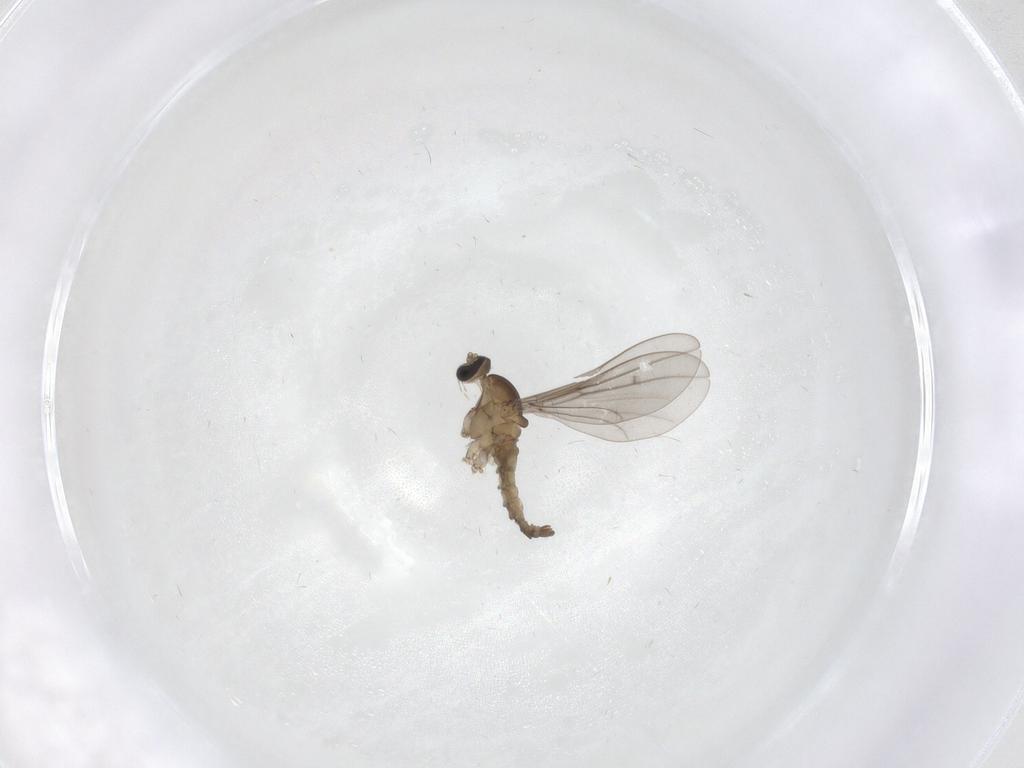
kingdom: Animalia
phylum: Arthropoda
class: Insecta
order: Diptera
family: Cecidomyiidae
